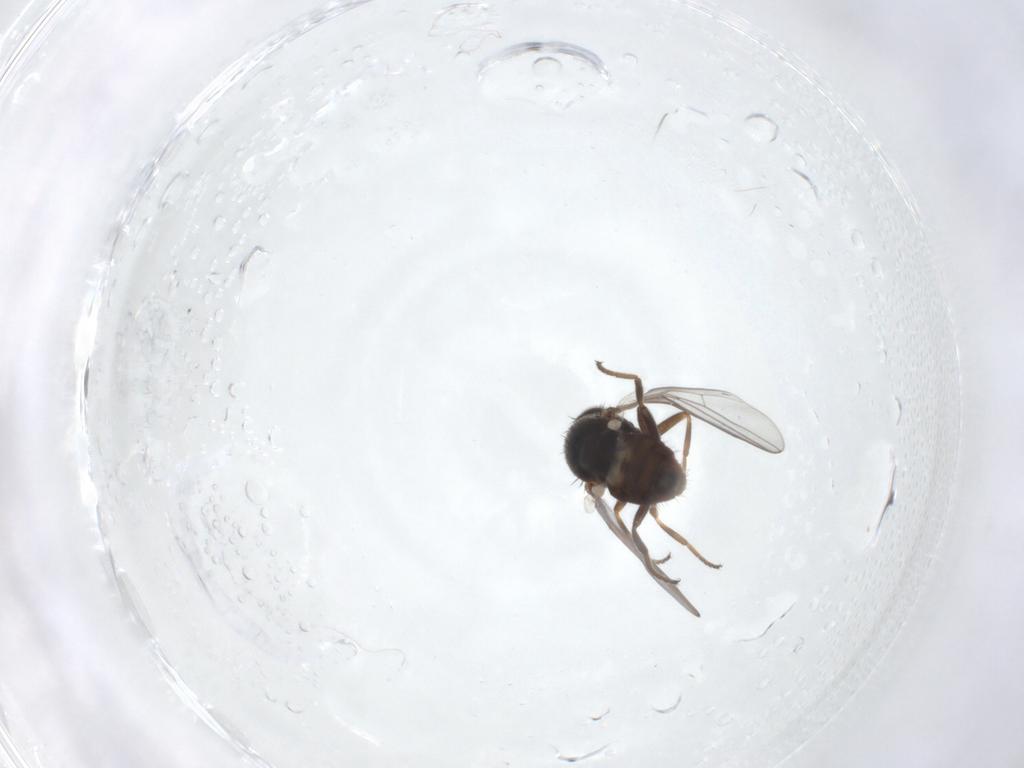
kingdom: Animalia
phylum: Arthropoda
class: Insecta
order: Diptera
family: Chloropidae
